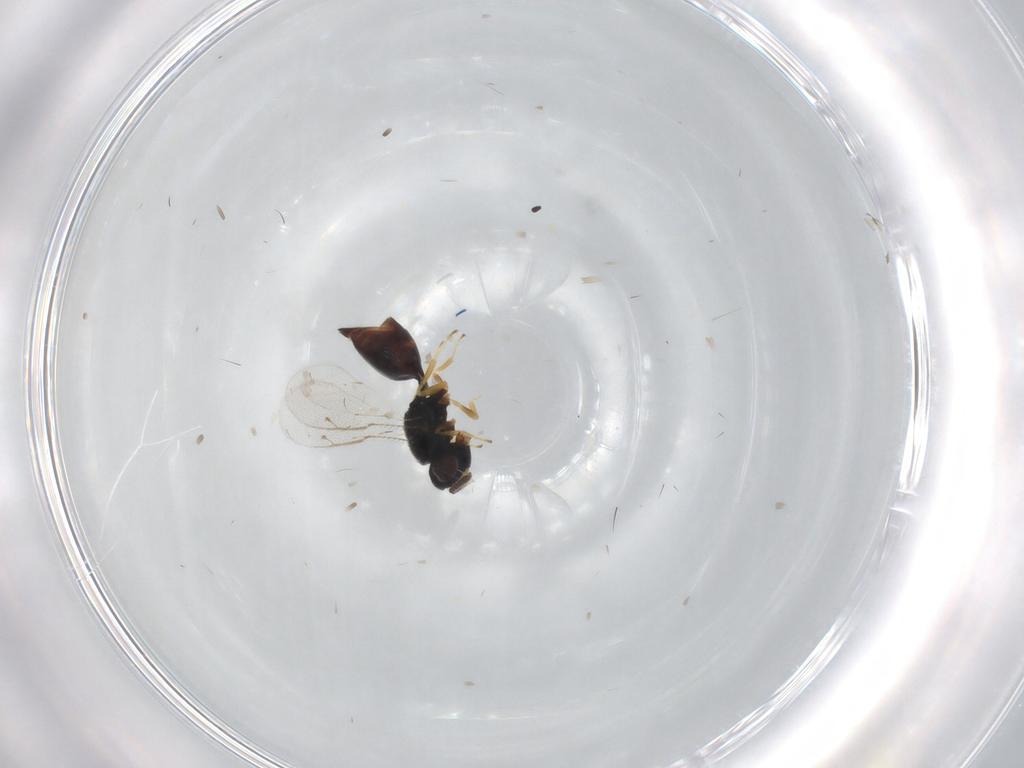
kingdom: Animalia
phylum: Arthropoda
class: Insecta
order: Hymenoptera
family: Pteromalidae
